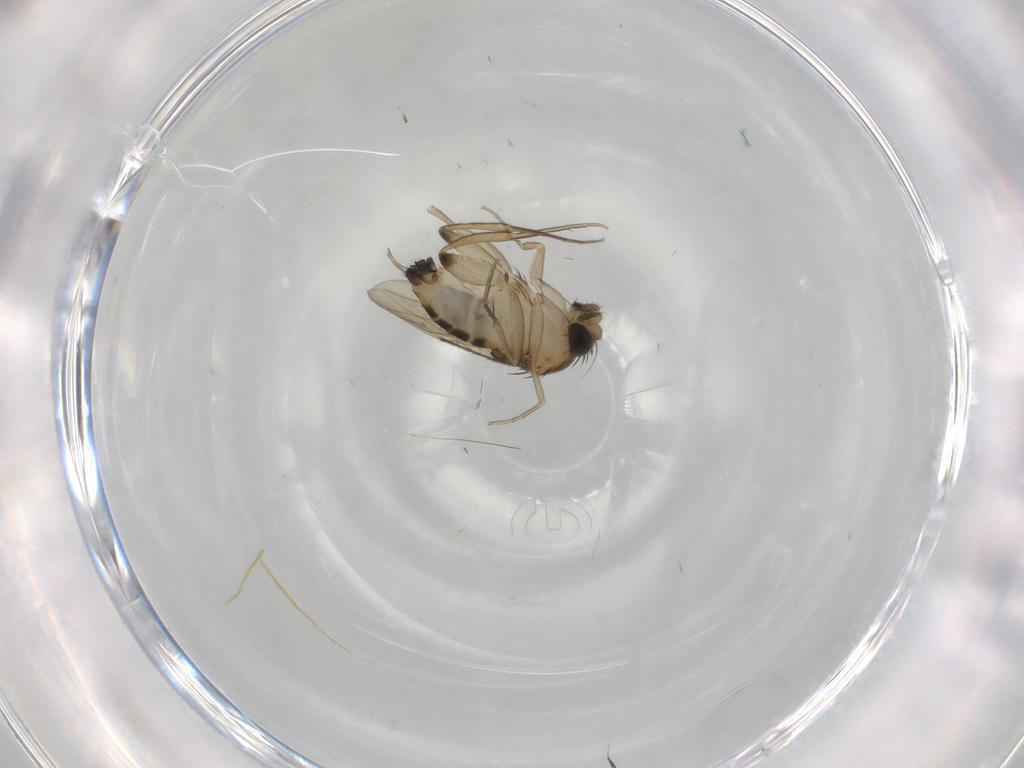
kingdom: Animalia
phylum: Arthropoda
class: Insecta
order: Diptera
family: Phoridae
